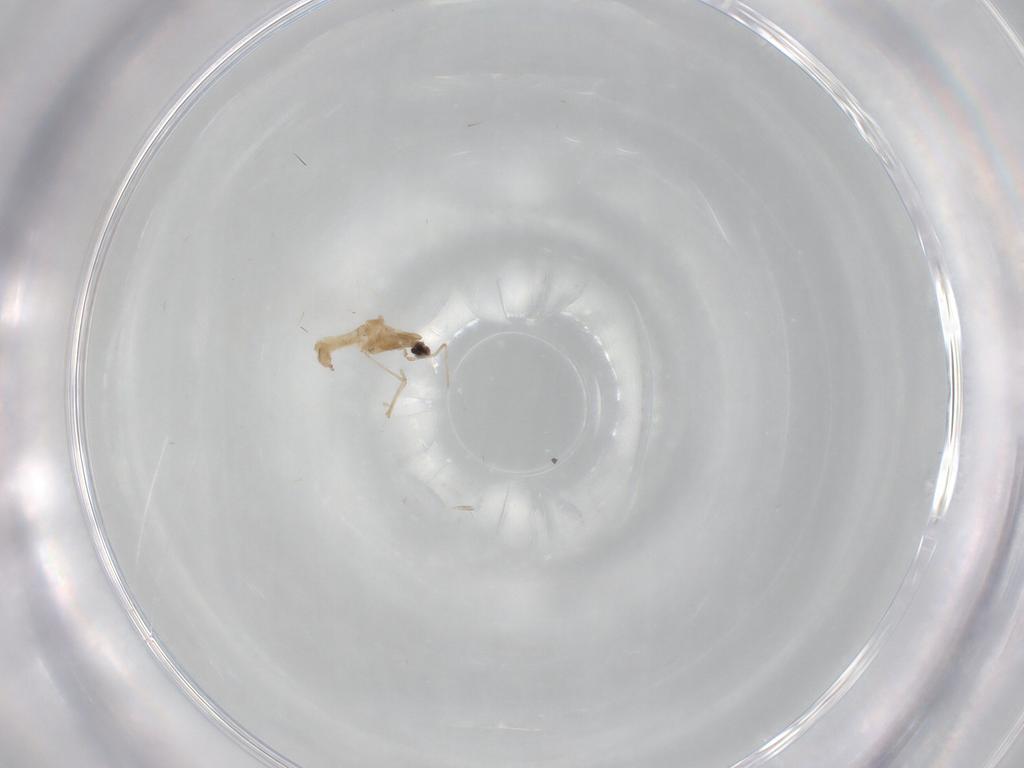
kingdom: Animalia
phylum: Arthropoda
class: Insecta
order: Diptera
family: Chironomidae
